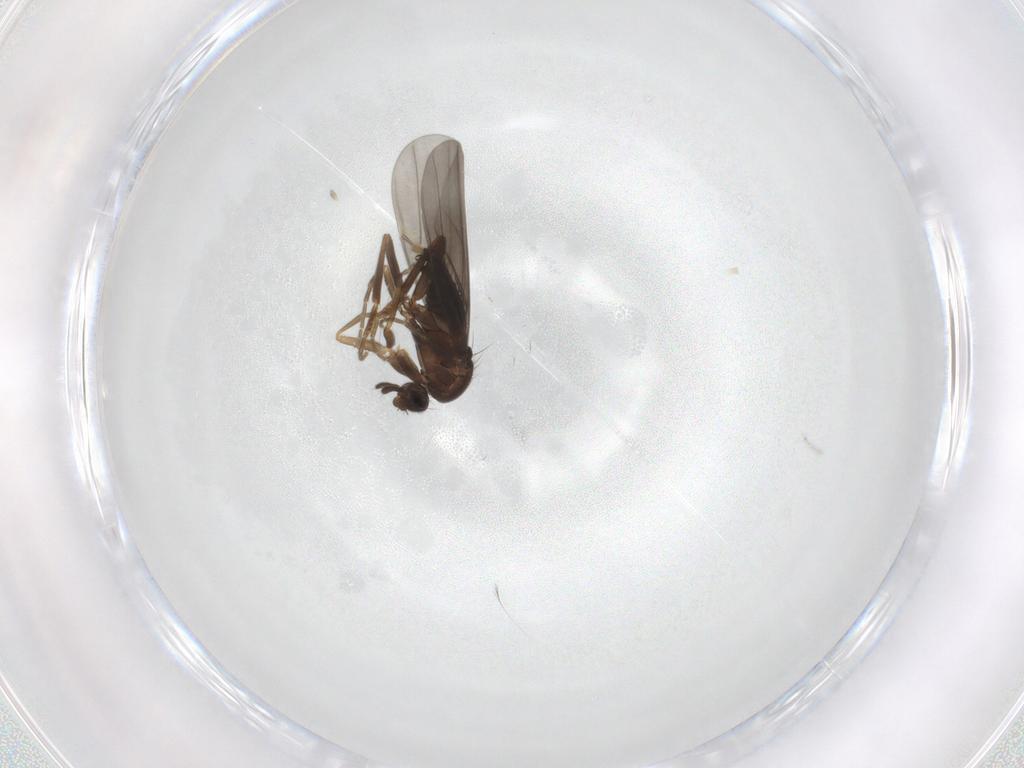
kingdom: Animalia
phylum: Arthropoda
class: Insecta
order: Diptera
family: Phoridae
